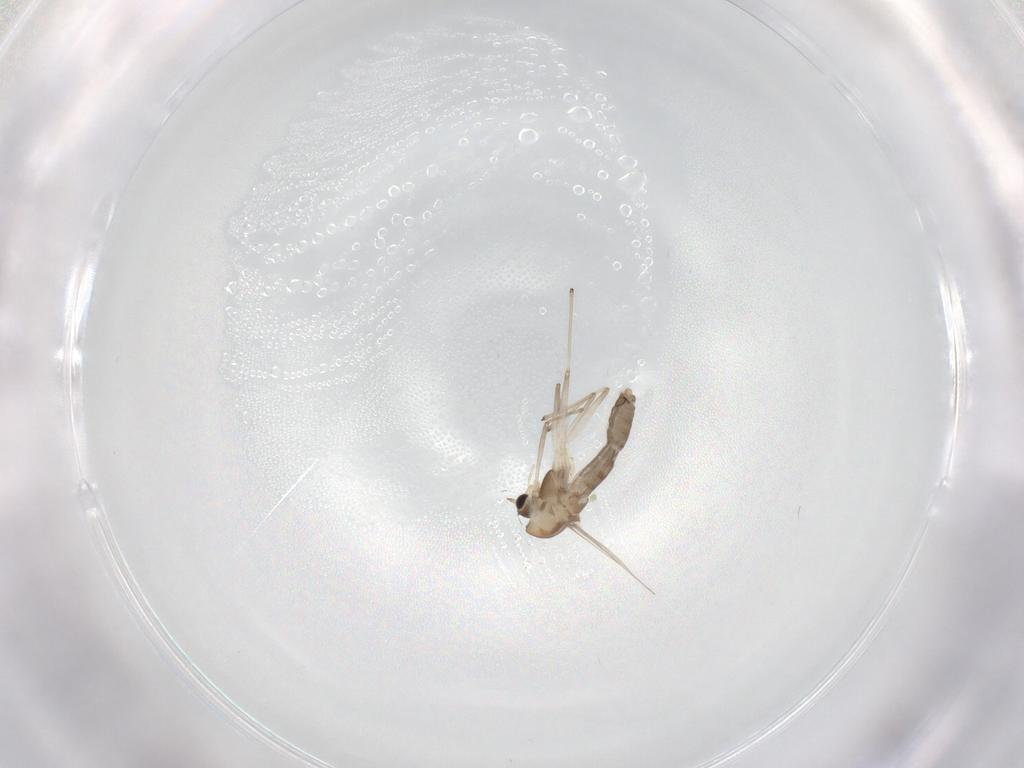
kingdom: Animalia
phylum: Arthropoda
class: Insecta
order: Diptera
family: Chironomidae
